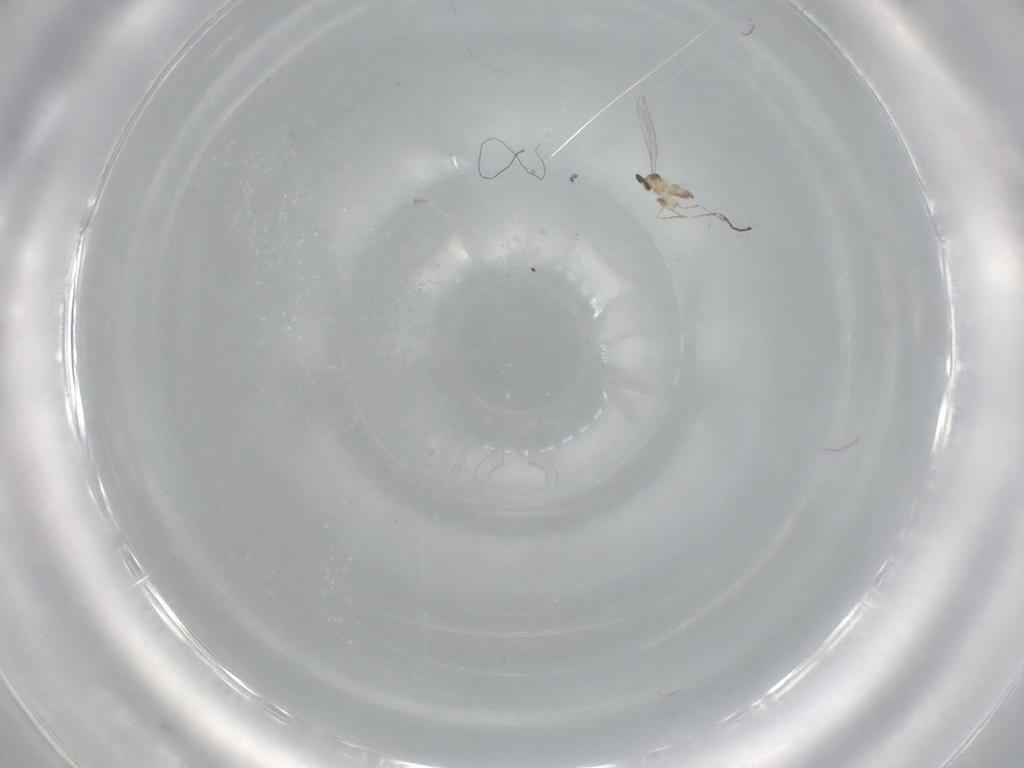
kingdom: Animalia
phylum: Arthropoda
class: Insecta
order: Diptera
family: Cecidomyiidae
